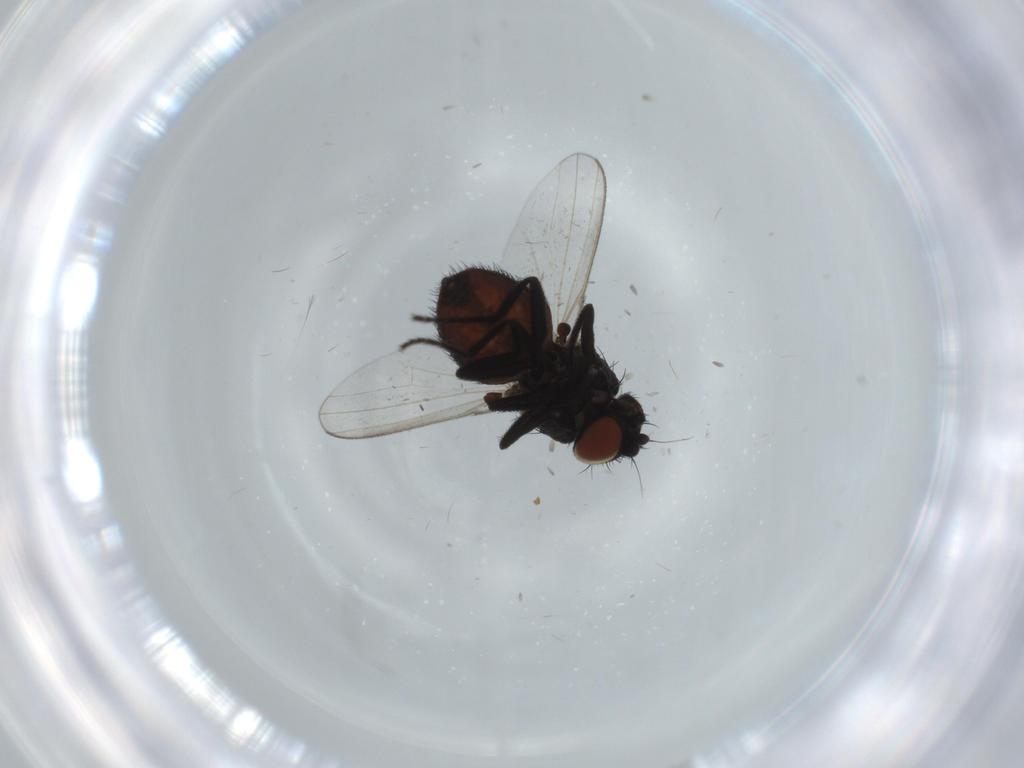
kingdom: Animalia
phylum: Arthropoda
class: Insecta
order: Diptera
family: Milichiidae
